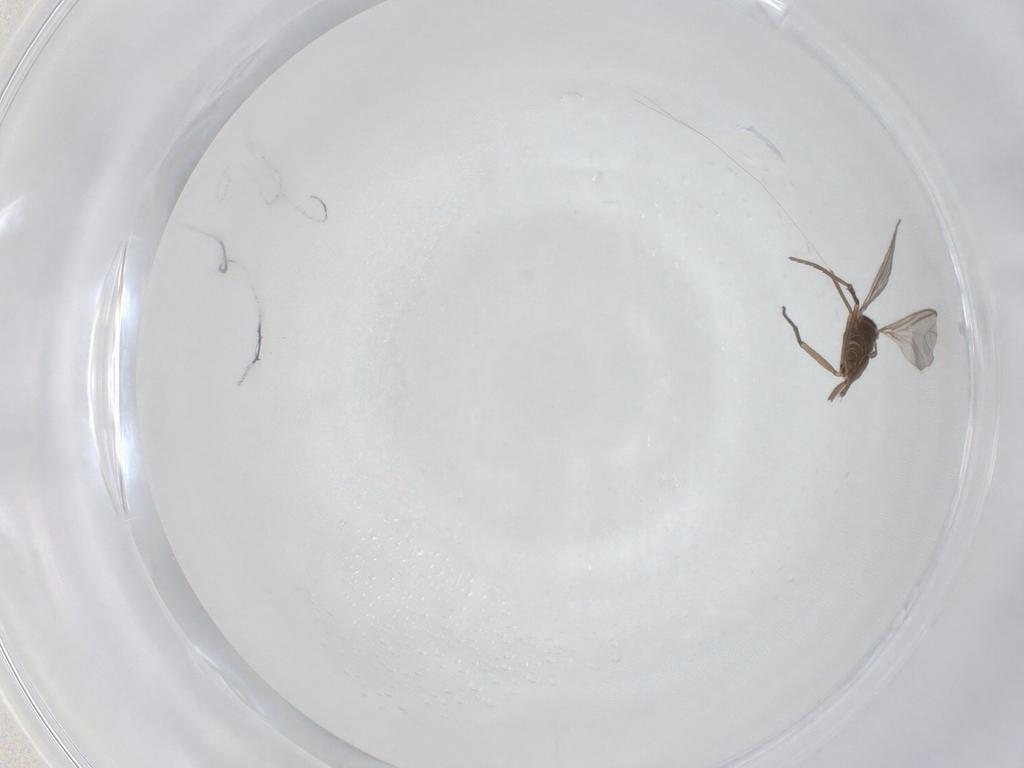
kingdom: Animalia
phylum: Arthropoda
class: Insecta
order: Diptera
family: Sciaridae
